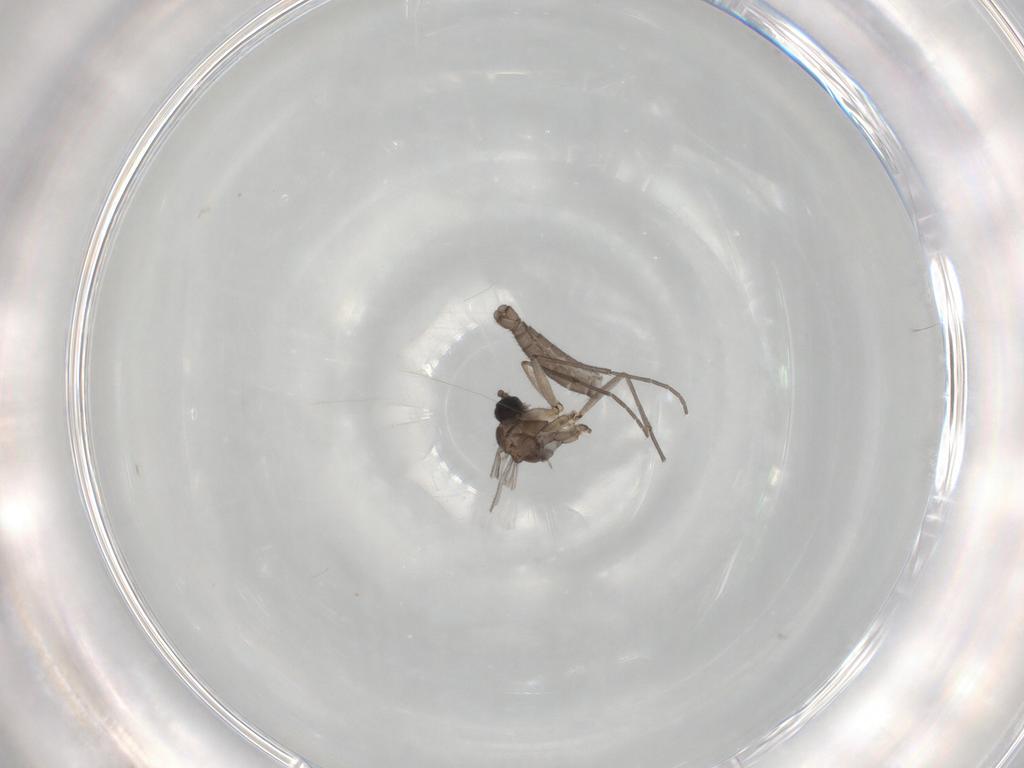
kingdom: Animalia
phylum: Arthropoda
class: Insecta
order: Diptera
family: Sciaridae
